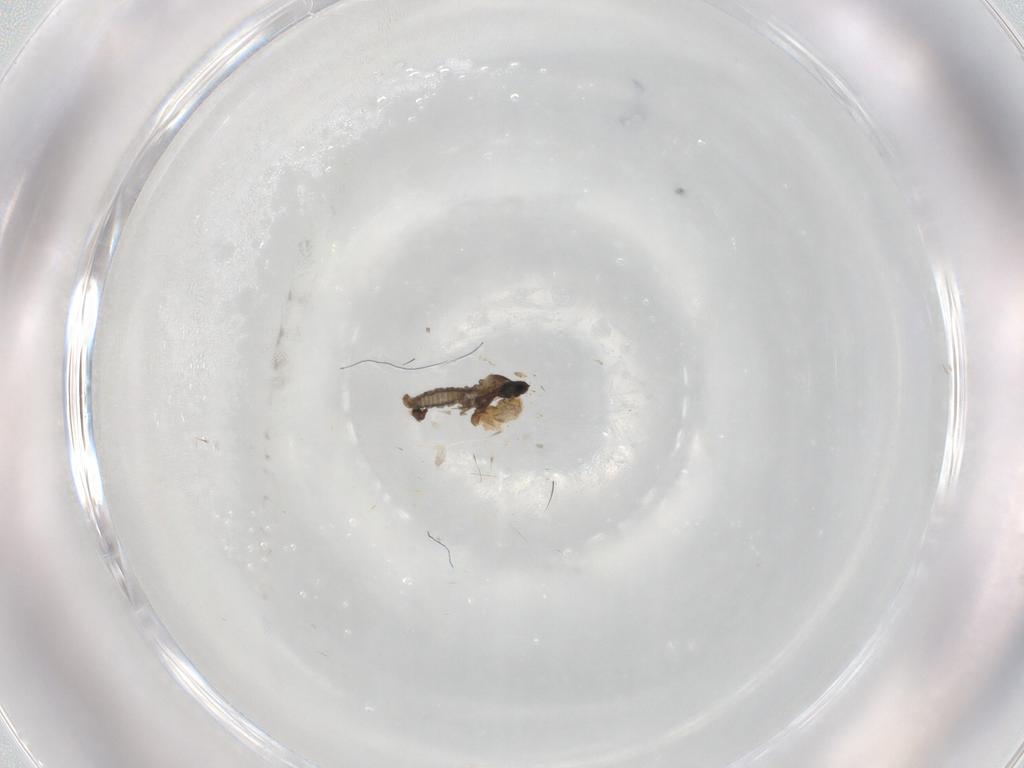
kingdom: Animalia
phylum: Arthropoda
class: Insecta
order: Diptera
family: Cecidomyiidae
